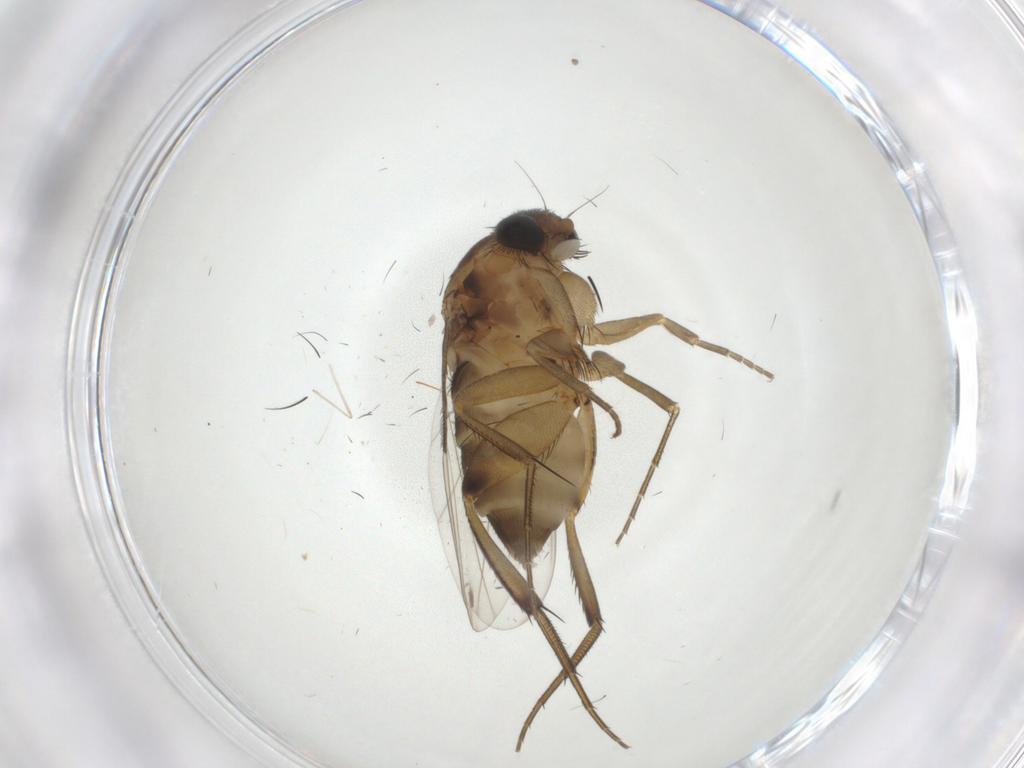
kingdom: Animalia
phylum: Arthropoda
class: Insecta
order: Diptera
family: Phoridae
